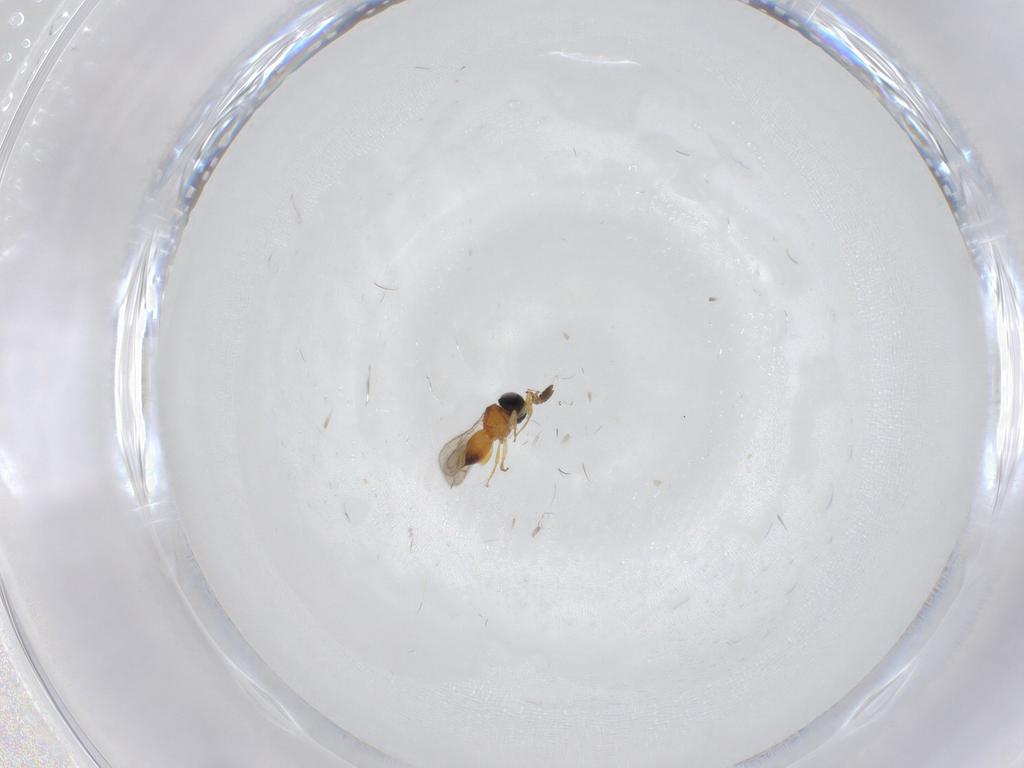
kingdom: Animalia
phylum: Arthropoda
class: Insecta
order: Hymenoptera
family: Scelionidae
